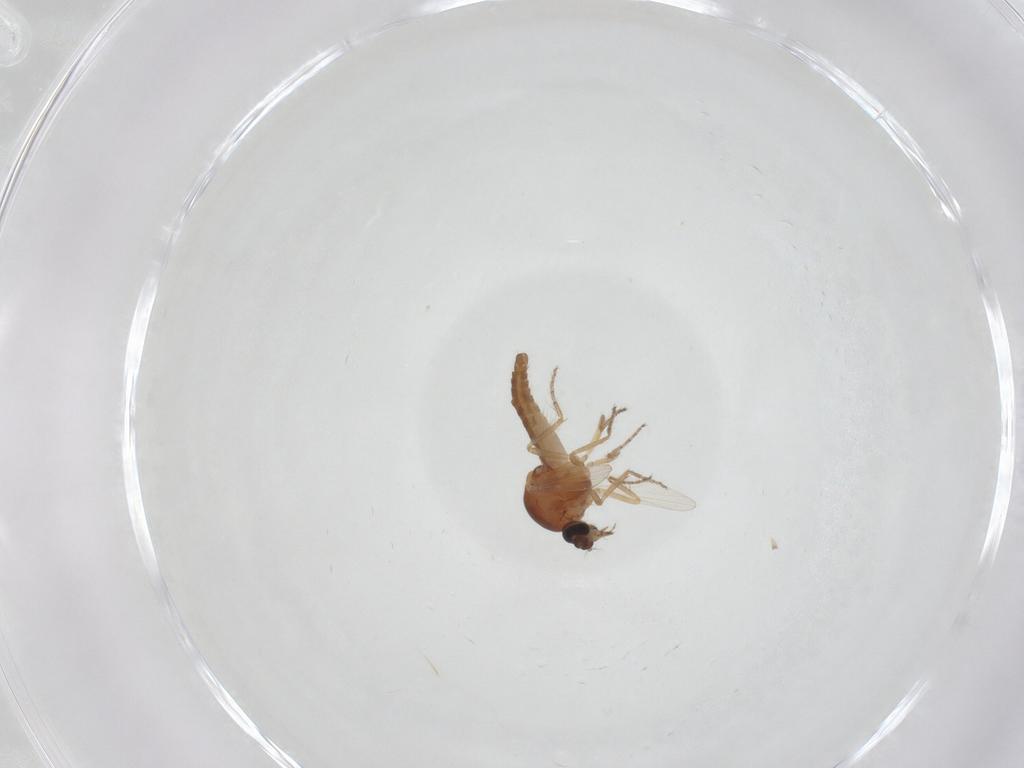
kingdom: Animalia
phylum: Arthropoda
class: Insecta
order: Diptera
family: Ceratopogonidae
